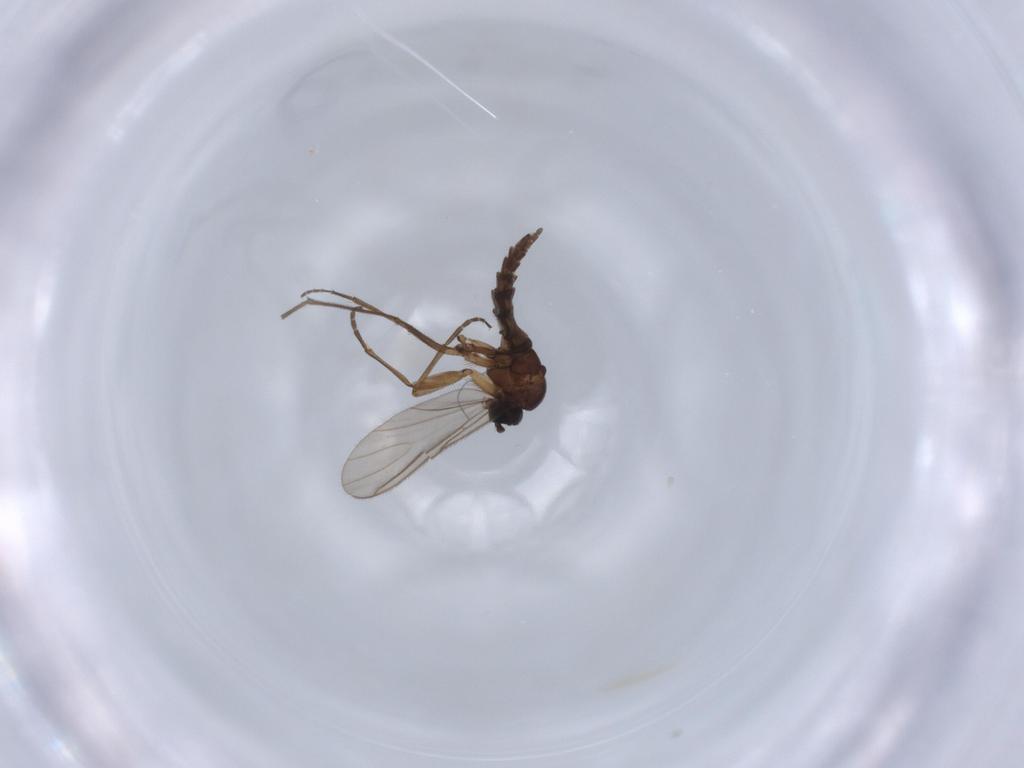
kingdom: Animalia
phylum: Arthropoda
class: Insecta
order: Diptera
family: Sciaridae
